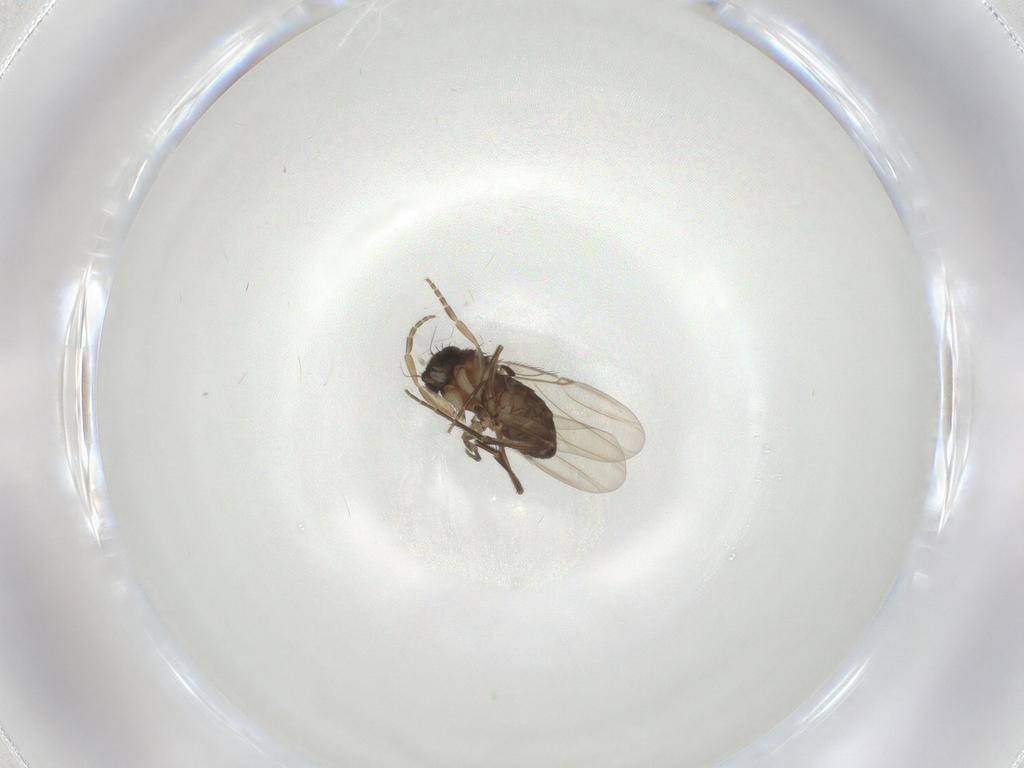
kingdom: Animalia
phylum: Arthropoda
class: Insecta
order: Diptera
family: Phoridae
